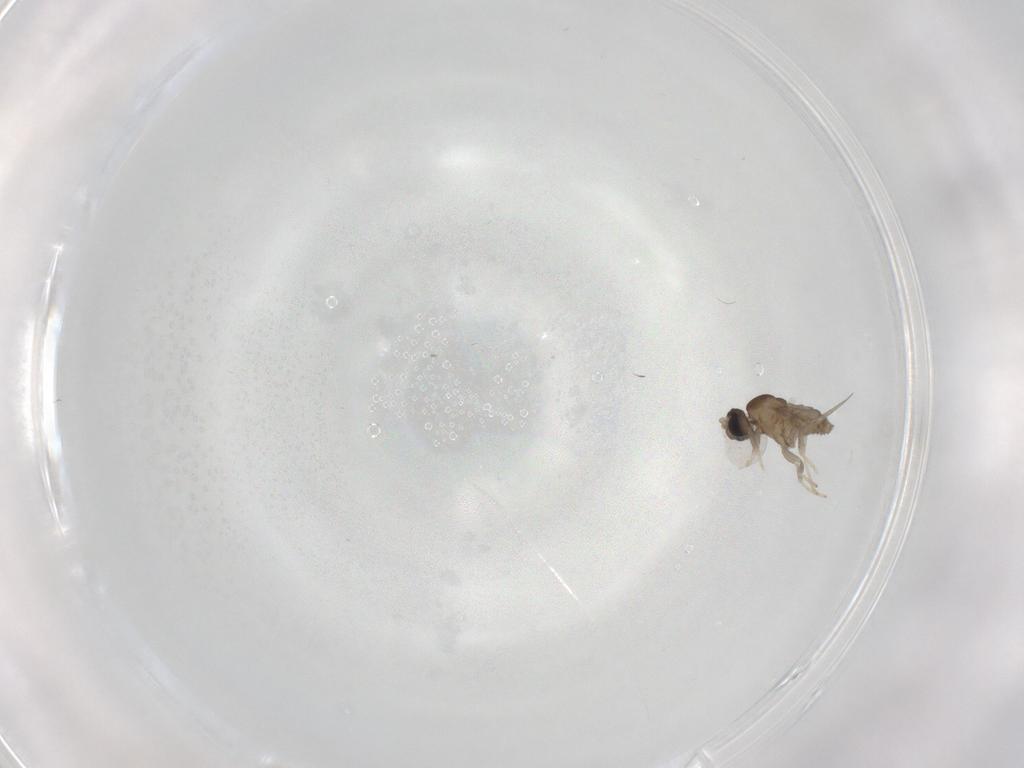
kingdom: Animalia
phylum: Arthropoda
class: Insecta
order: Diptera
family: Cecidomyiidae
